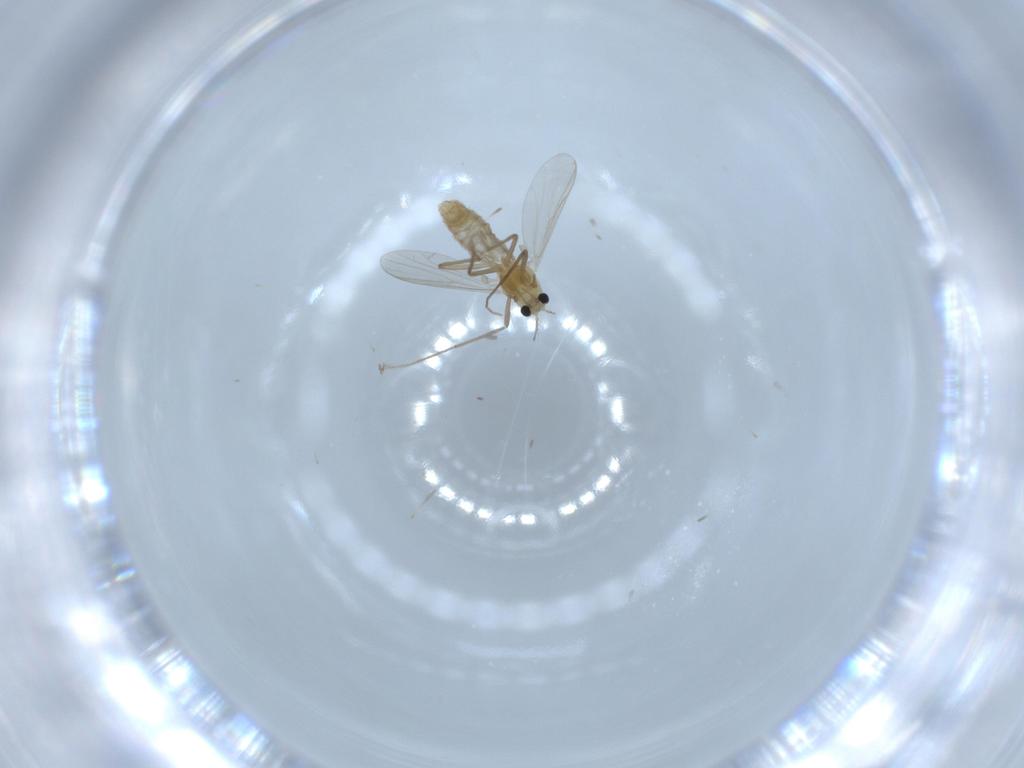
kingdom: Animalia
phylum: Arthropoda
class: Insecta
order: Diptera
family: Chironomidae
